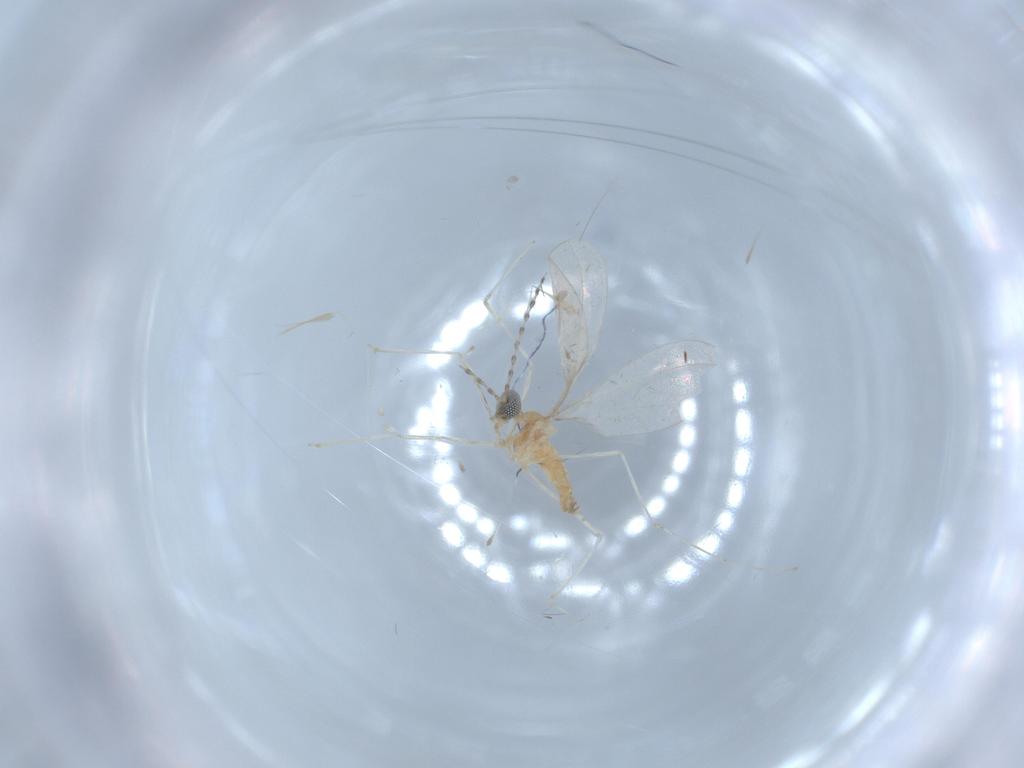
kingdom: Animalia
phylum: Arthropoda
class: Insecta
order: Diptera
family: Cecidomyiidae
